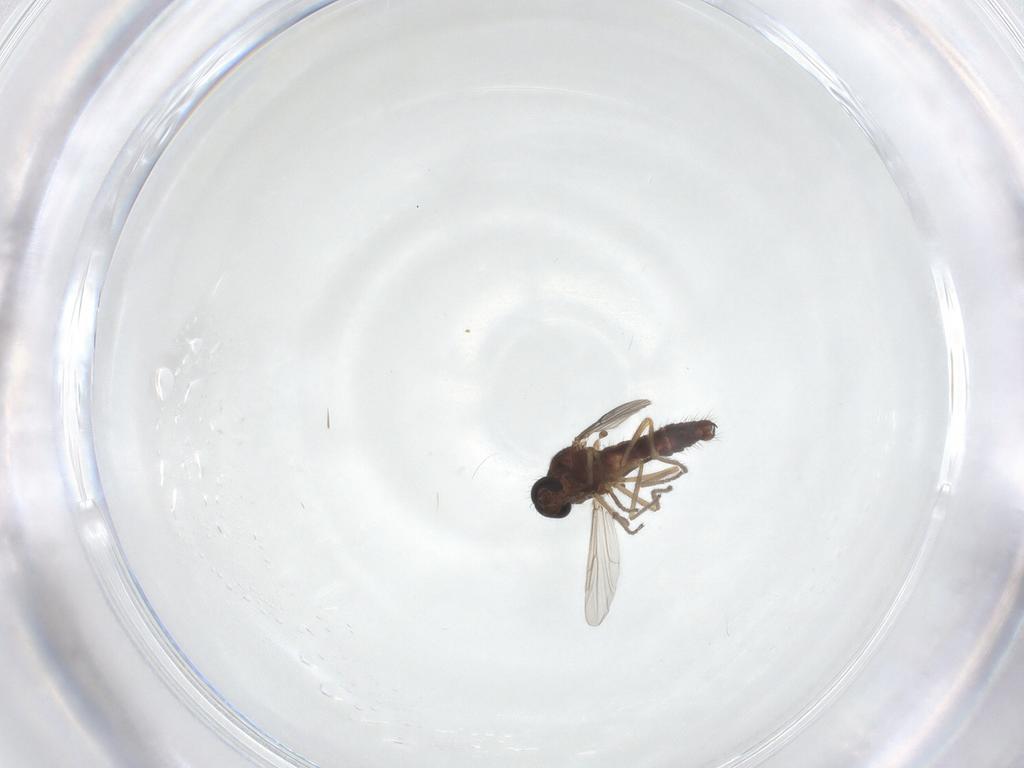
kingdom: Animalia
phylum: Arthropoda
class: Insecta
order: Diptera
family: Ceratopogonidae
